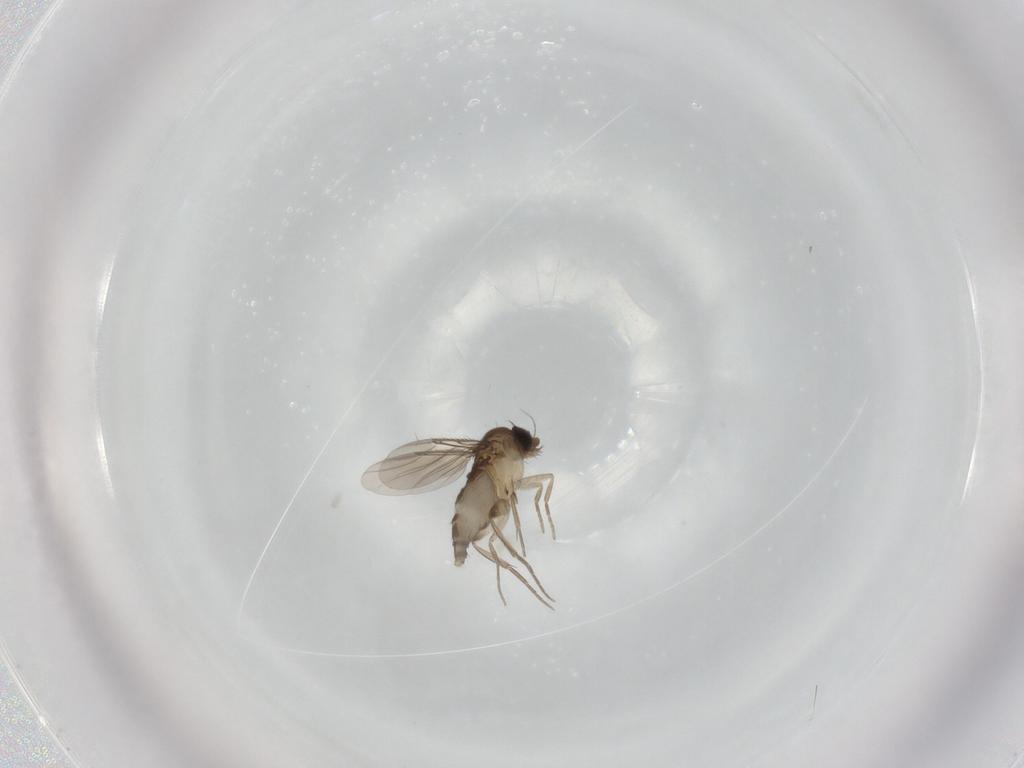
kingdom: Animalia
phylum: Arthropoda
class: Insecta
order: Diptera
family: Phoridae
